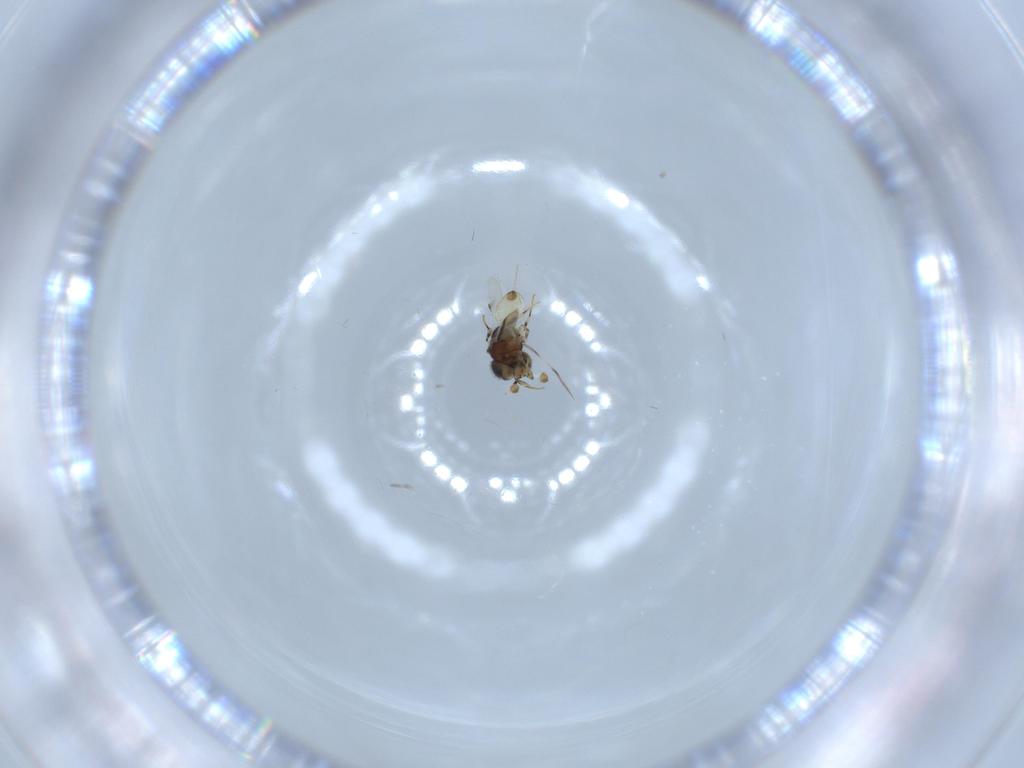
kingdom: Animalia
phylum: Arthropoda
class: Insecta
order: Hymenoptera
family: Scelionidae
